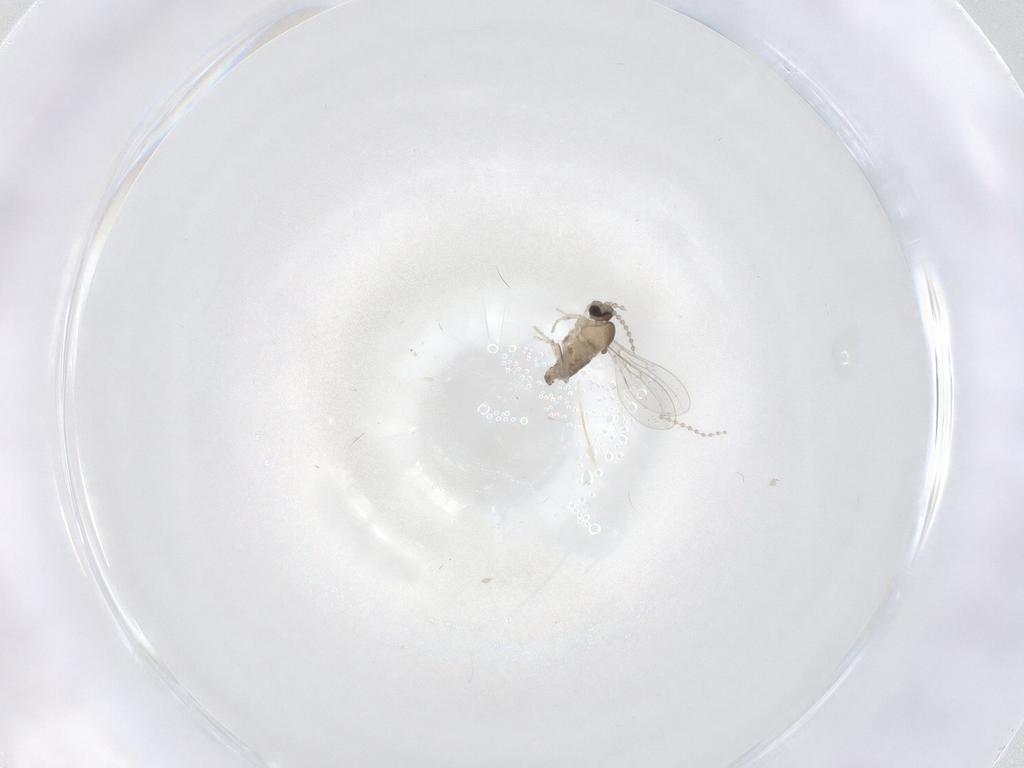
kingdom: Animalia
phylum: Arthropoda
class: Insecta
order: Diptera
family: Cecidomyiidae
